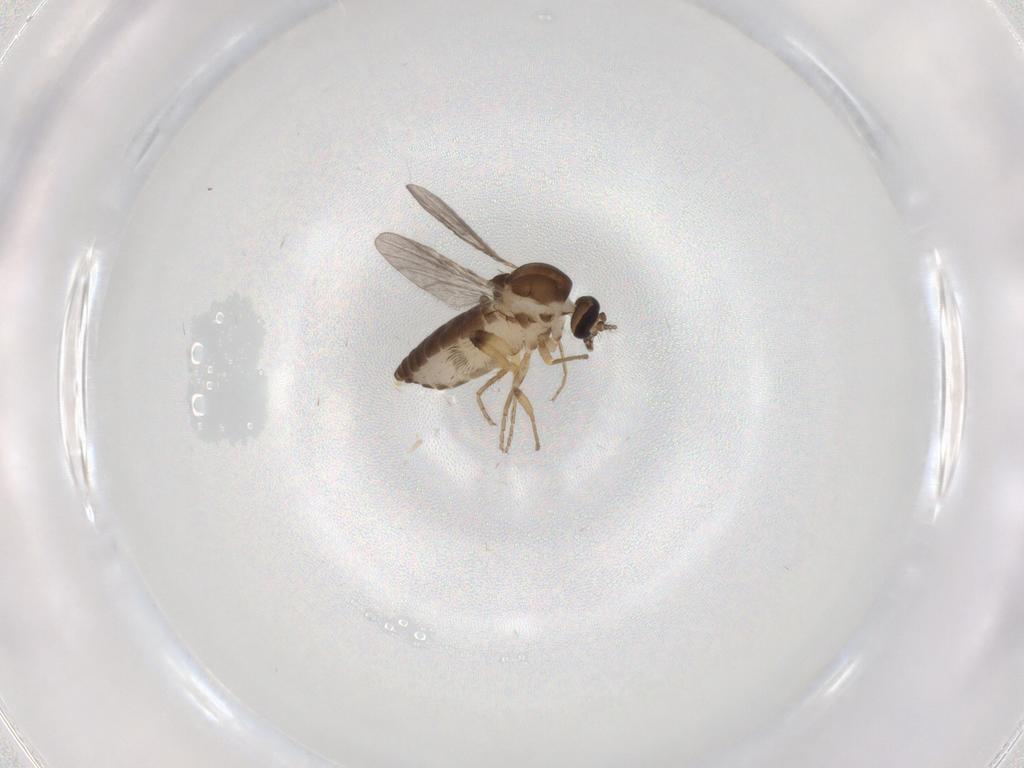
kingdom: Animalia
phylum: Arthropoda
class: Insecta
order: Diptera
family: Ceratopogonidae
